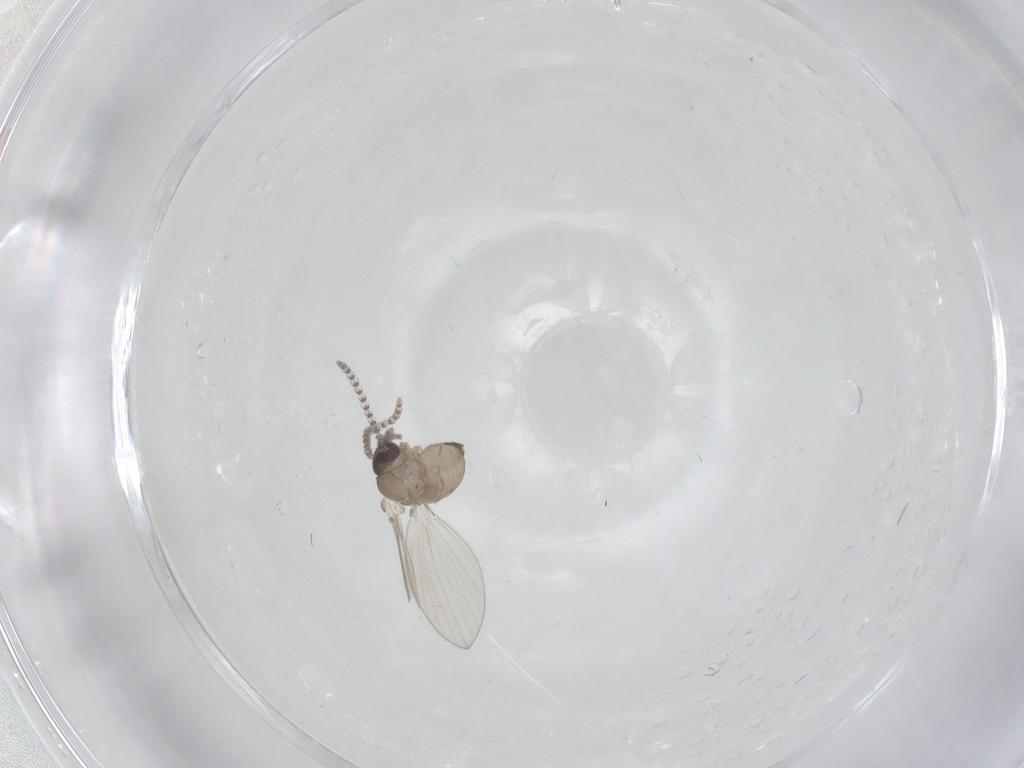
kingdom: Animalia
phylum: Arthropoda
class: Insecta
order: Diptera
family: Psychodidae
